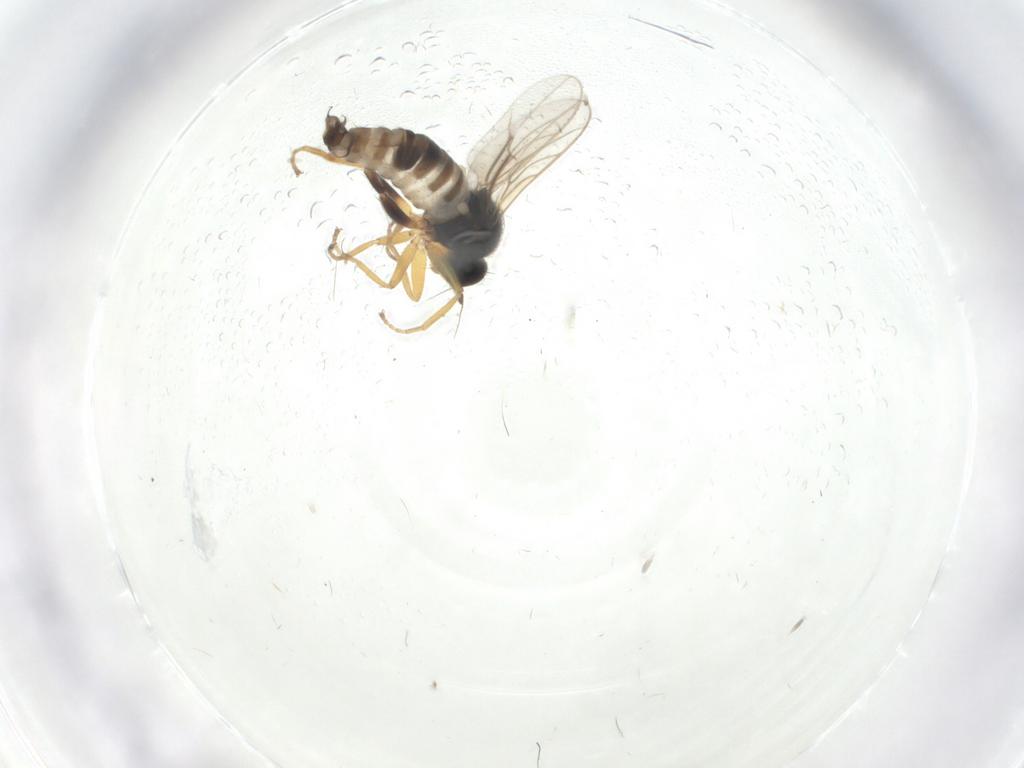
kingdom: Animalia
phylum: Arthropoda
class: Insecta
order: Diptera
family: Hybotidae
